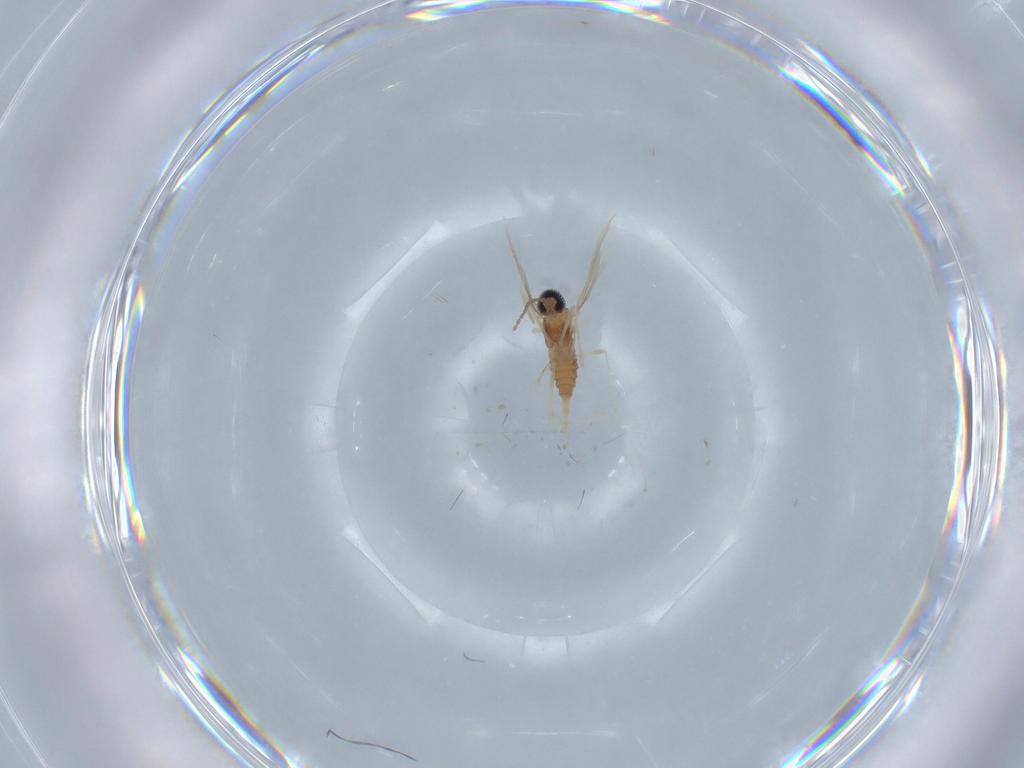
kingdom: Animalia
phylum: Arthropoda
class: Insecta
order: Diptera
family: Cecidomyiidae
